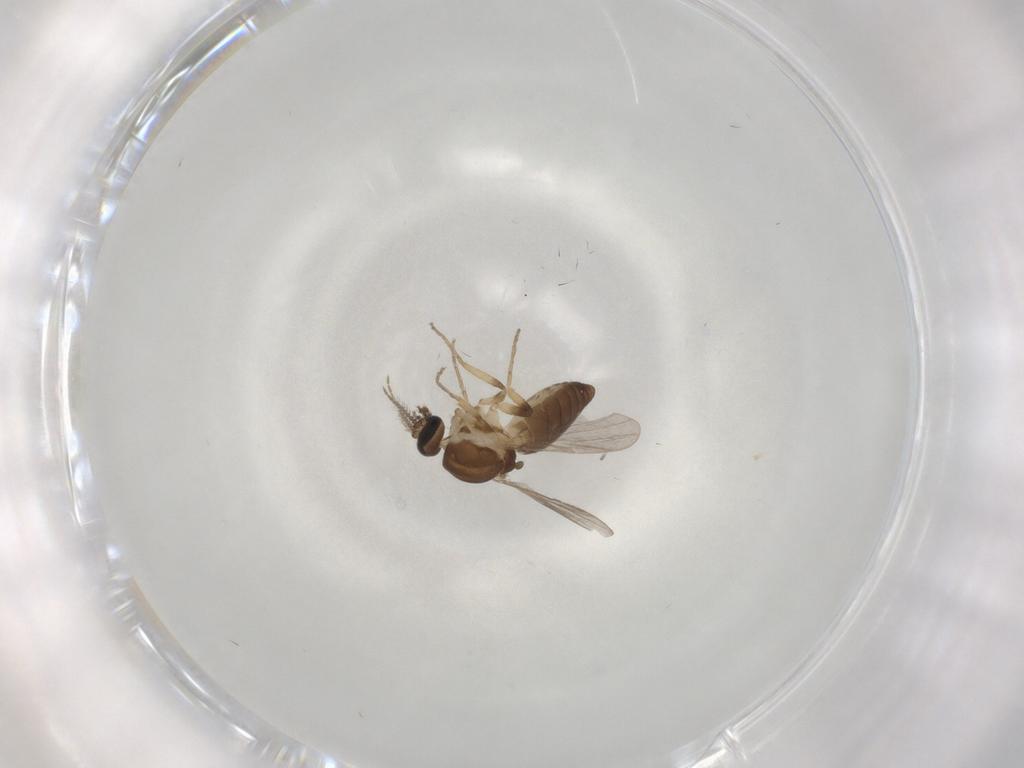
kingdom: Animalia
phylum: Arthropoda
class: Insecta
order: Diptera
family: Ceratopogonidae
